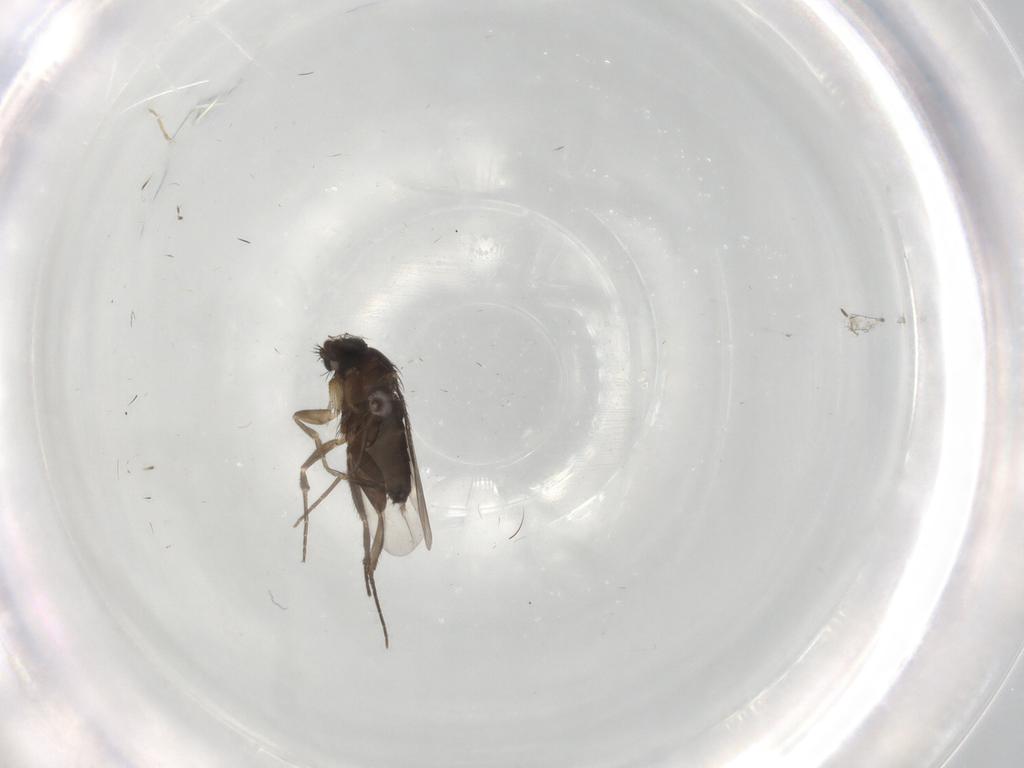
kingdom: Animalia
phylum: Arthropoda
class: Insecta
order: Diptera
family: Phoridae
